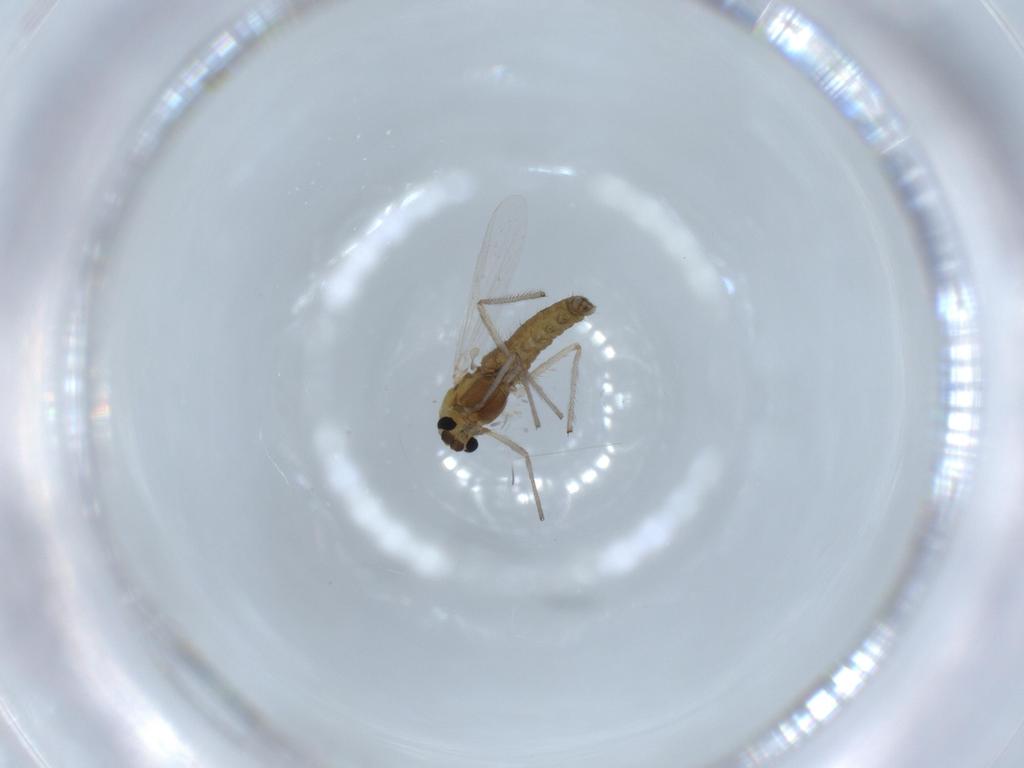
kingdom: Animalia
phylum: Arthropoda
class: Insecta
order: Diptera
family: Chironomidae
